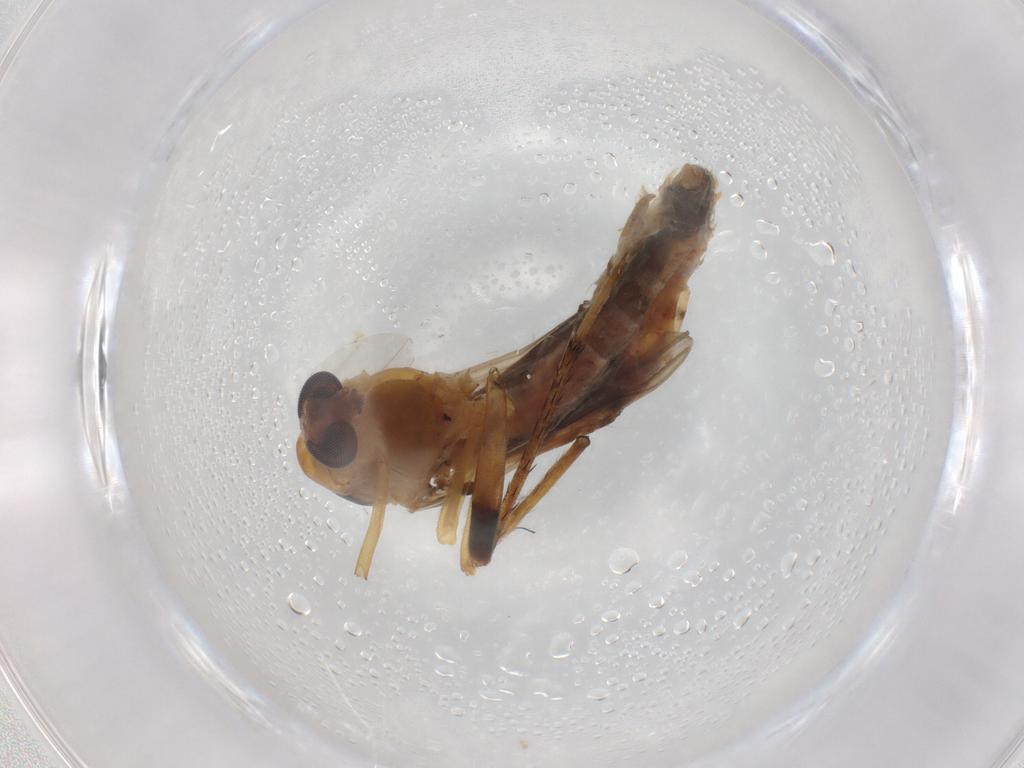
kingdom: Animalia
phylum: Arthropoda
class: Insecta
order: Diptera
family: Chironomidae
